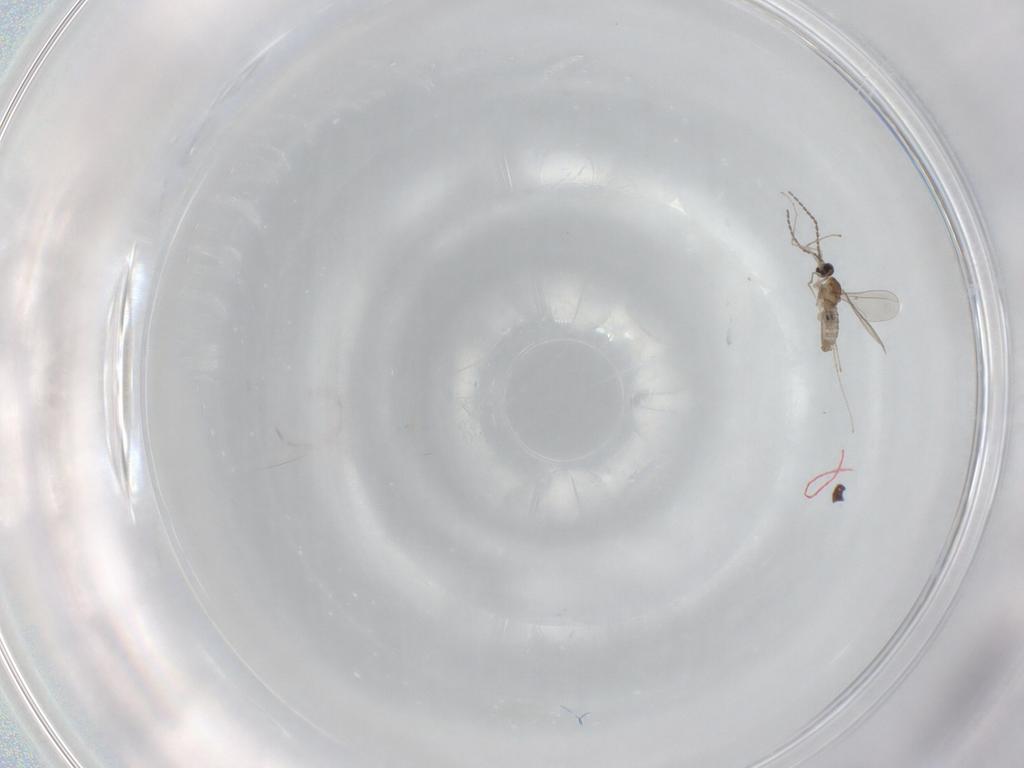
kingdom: Animalia
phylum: Arthropoda
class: Insecta
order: Diptera
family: Dolichopodidae
